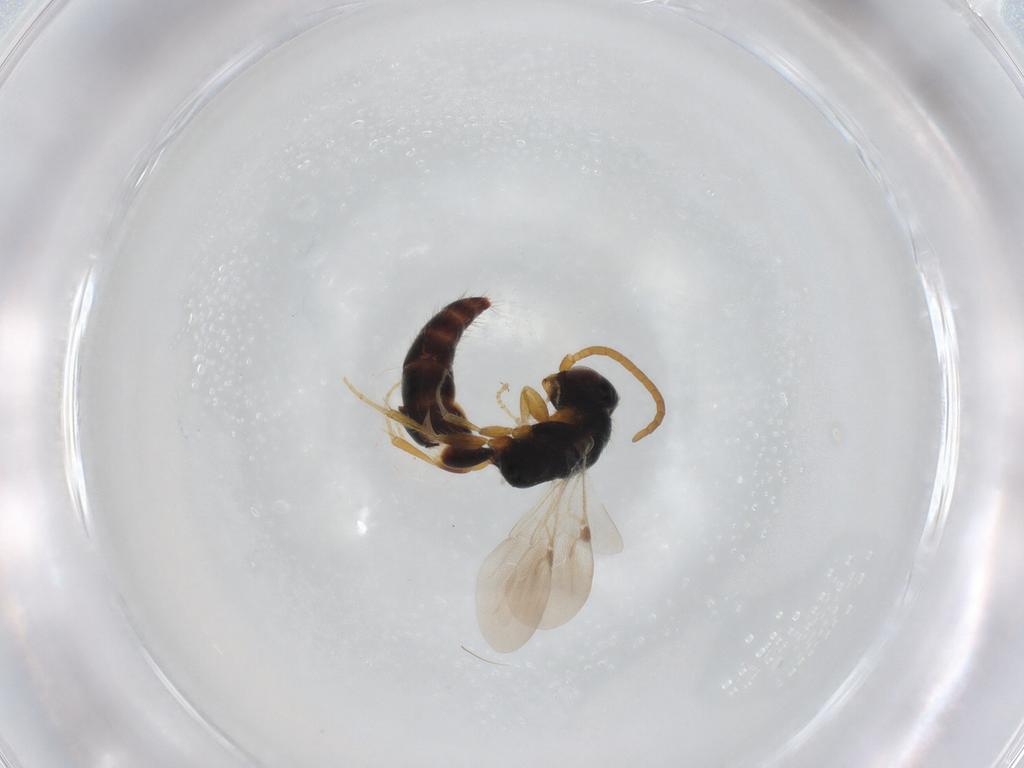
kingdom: Animalia
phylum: Arthropoda
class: Insecta
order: Hymenoptera
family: Bethylidae
